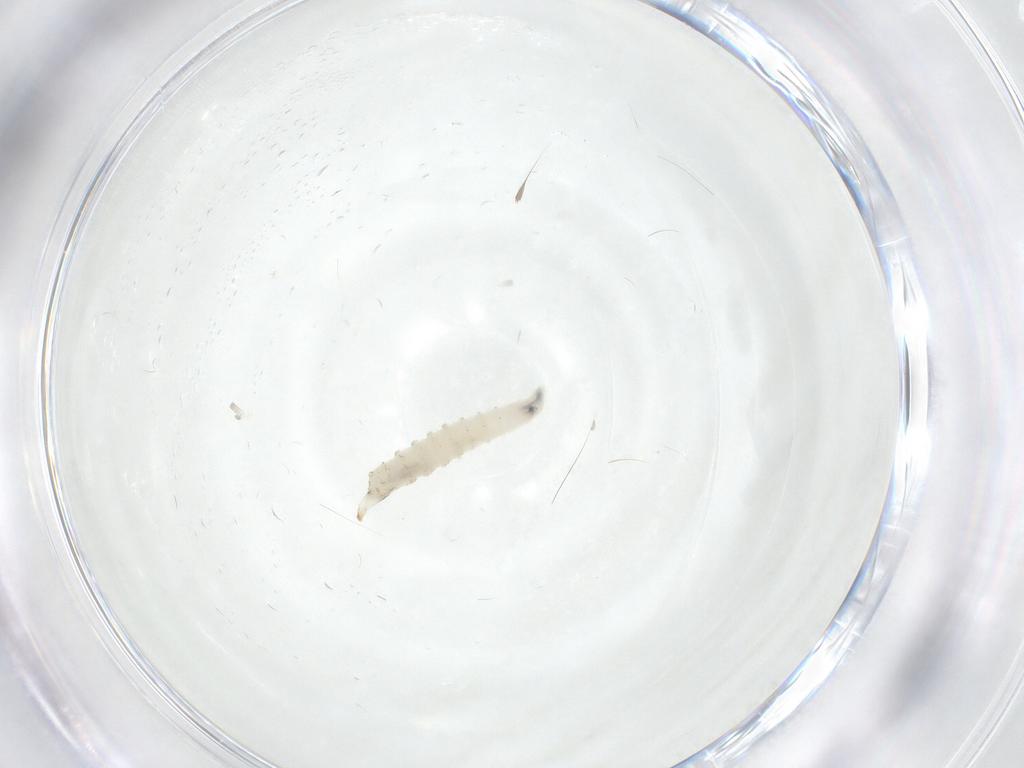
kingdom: Animalia
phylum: Arthropoda
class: Insecta
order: Diptera
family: Drosophilidae
